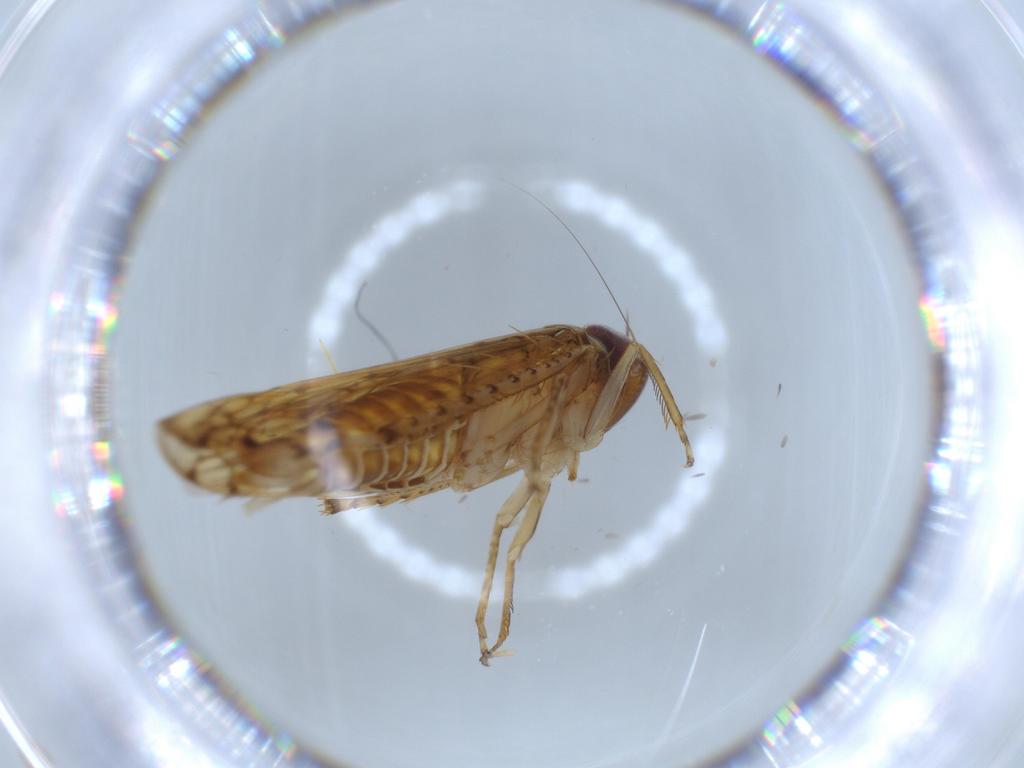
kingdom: Animalia
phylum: Arthropoda
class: Insecta
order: Hemiptera
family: Cicadellidae
